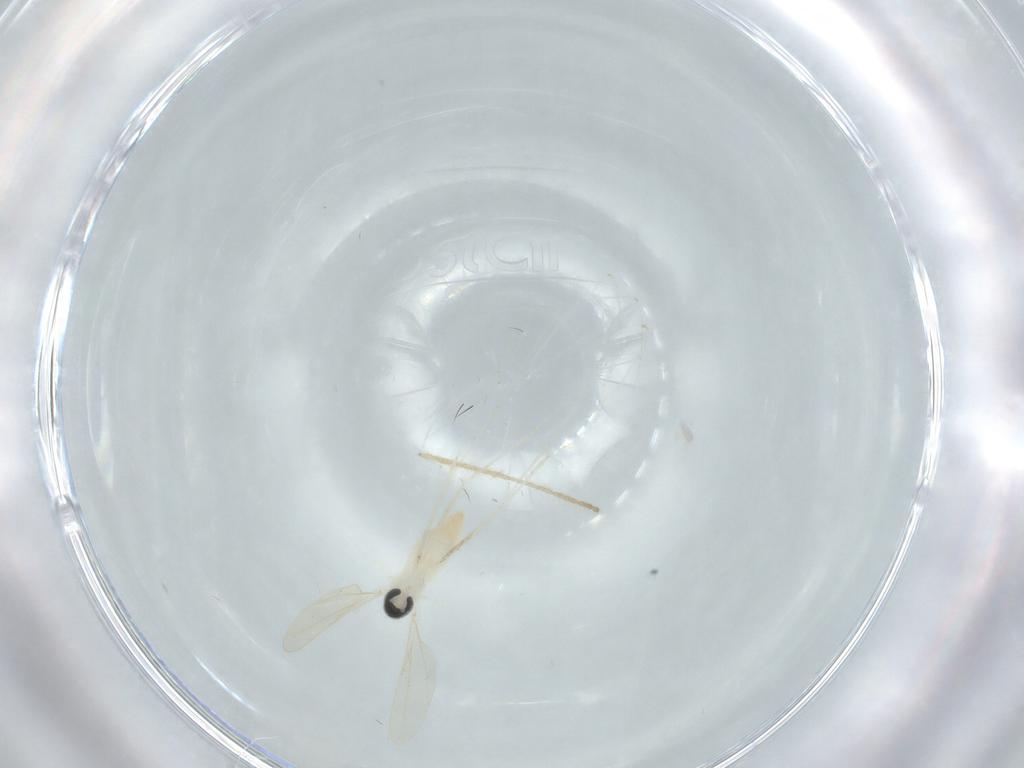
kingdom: Animalia
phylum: Arthropoda
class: Insecta
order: Diptera
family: Cecidomyiidae
